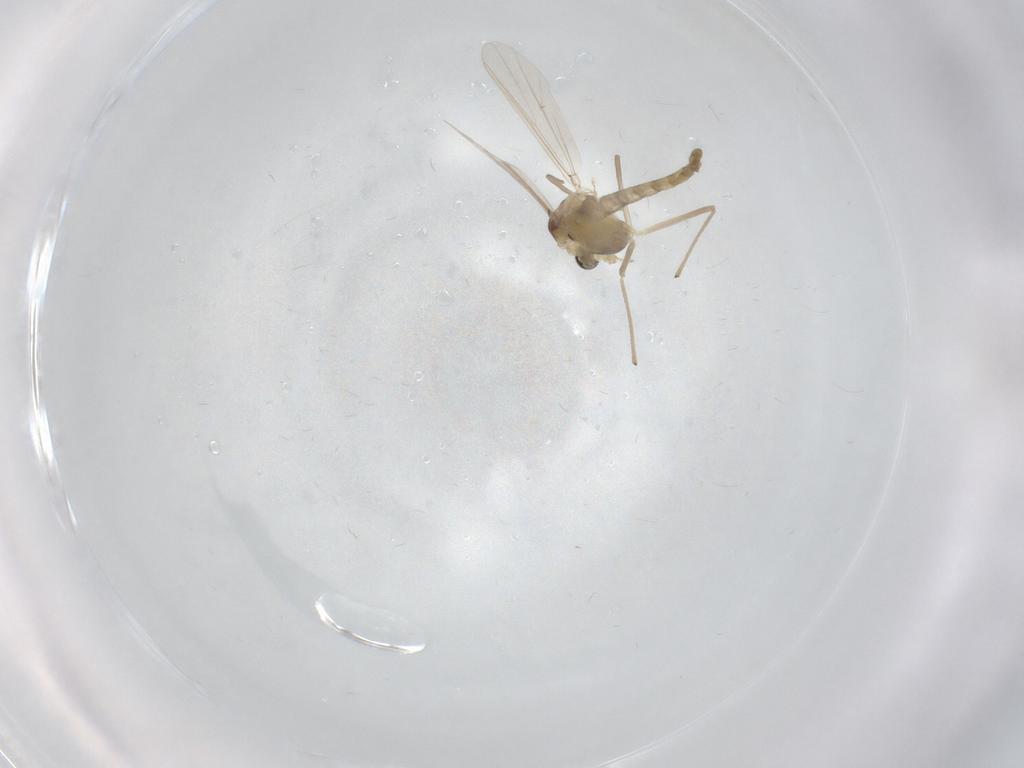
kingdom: Animalia
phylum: Arthropoda
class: Insecta
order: Diptera
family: Chironomidae
